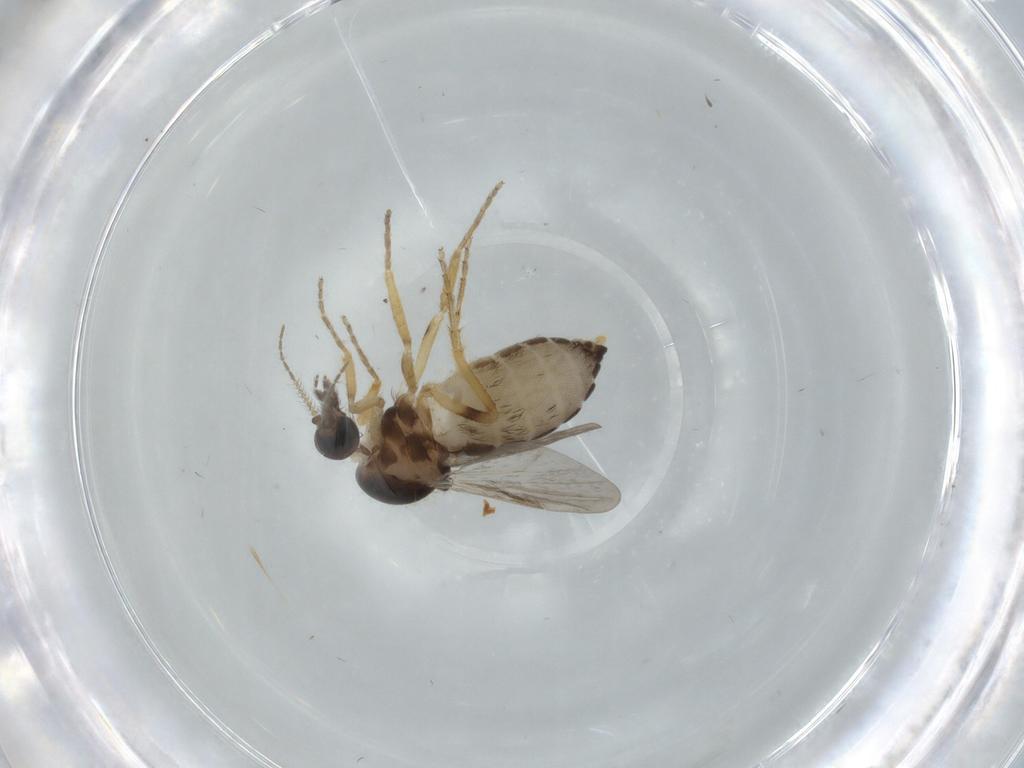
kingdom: Animalia
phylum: Arthropoda
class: Insecta
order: Diptera
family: Ceratopogonidae
